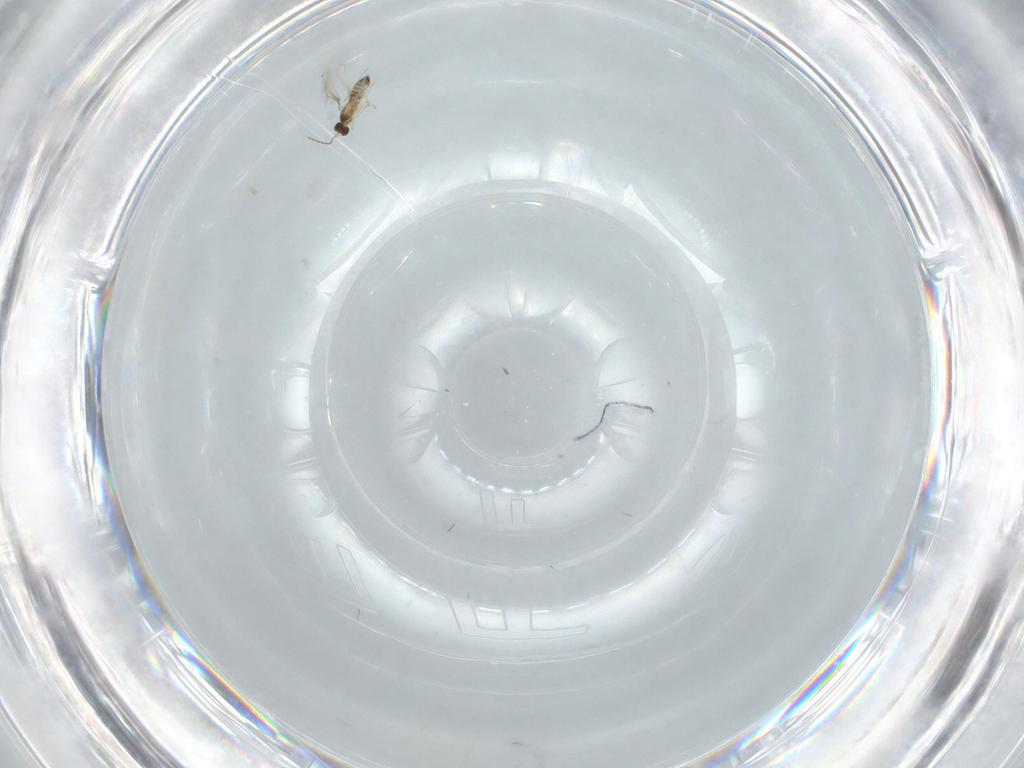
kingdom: Animalia
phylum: Arthropoda
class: Insecta
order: Hymenoptera
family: Mymaridae
